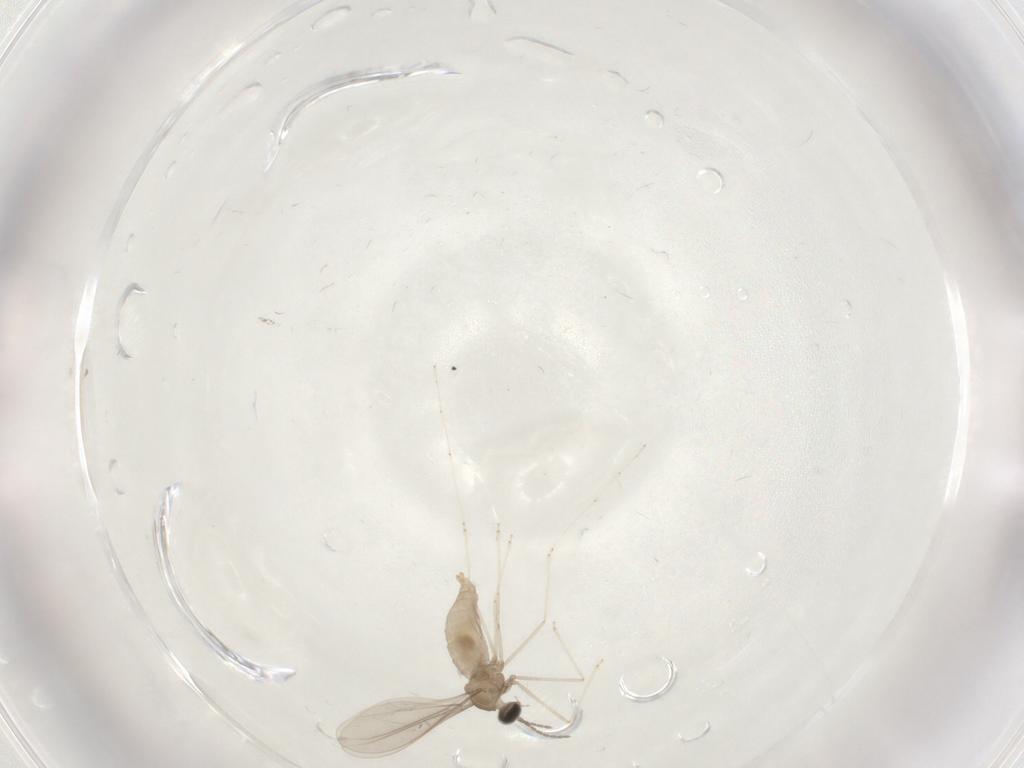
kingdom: Animalia
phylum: Arthropoda
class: Insecta
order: Diptera
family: Cecidomyiidae
